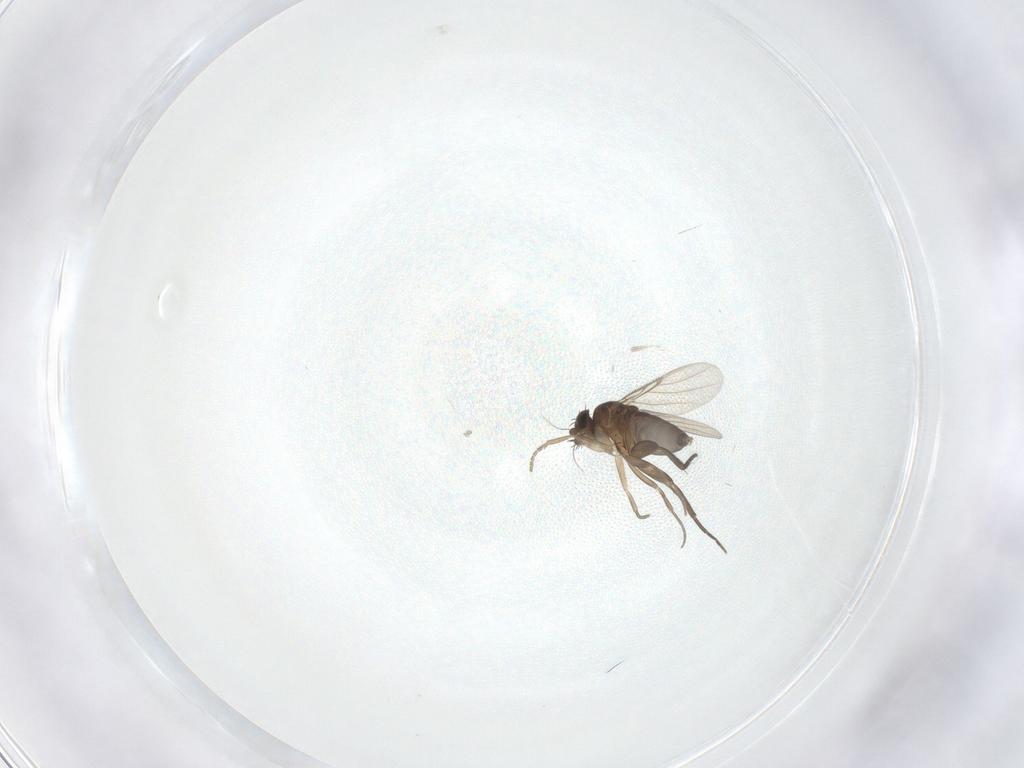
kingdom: Animalia
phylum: Arthropoda
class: Insecta
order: Diptera
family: Phoridae
